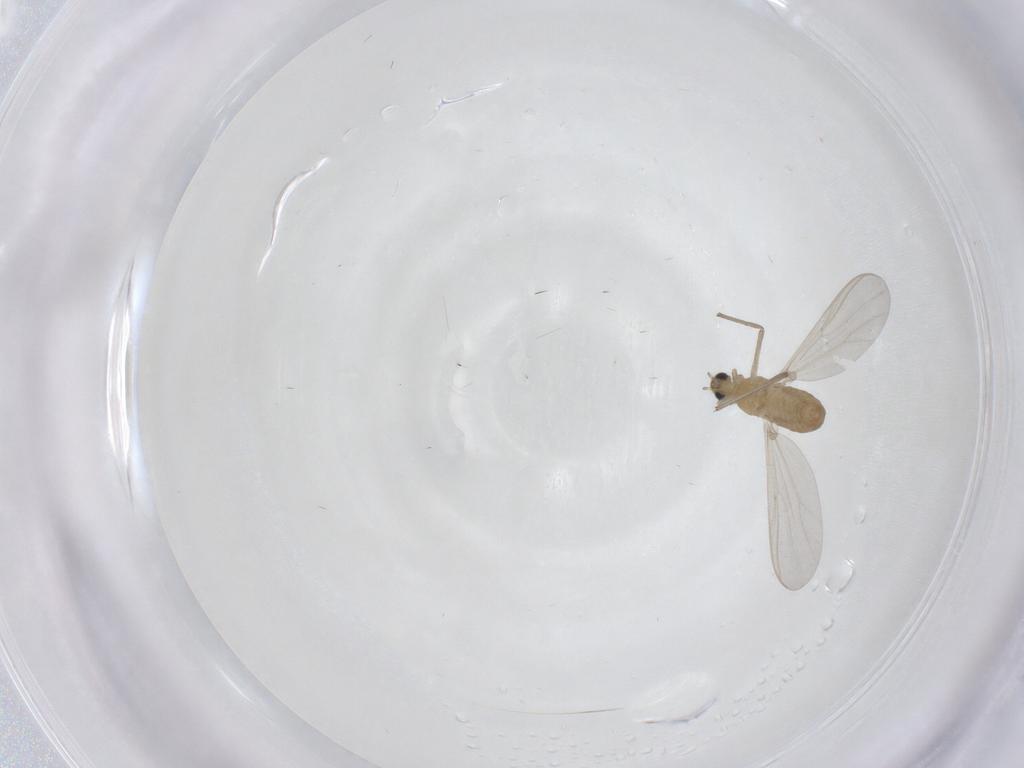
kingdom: Animalia
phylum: Arthropoda
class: Insecta
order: Diptera
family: Chironomidae
